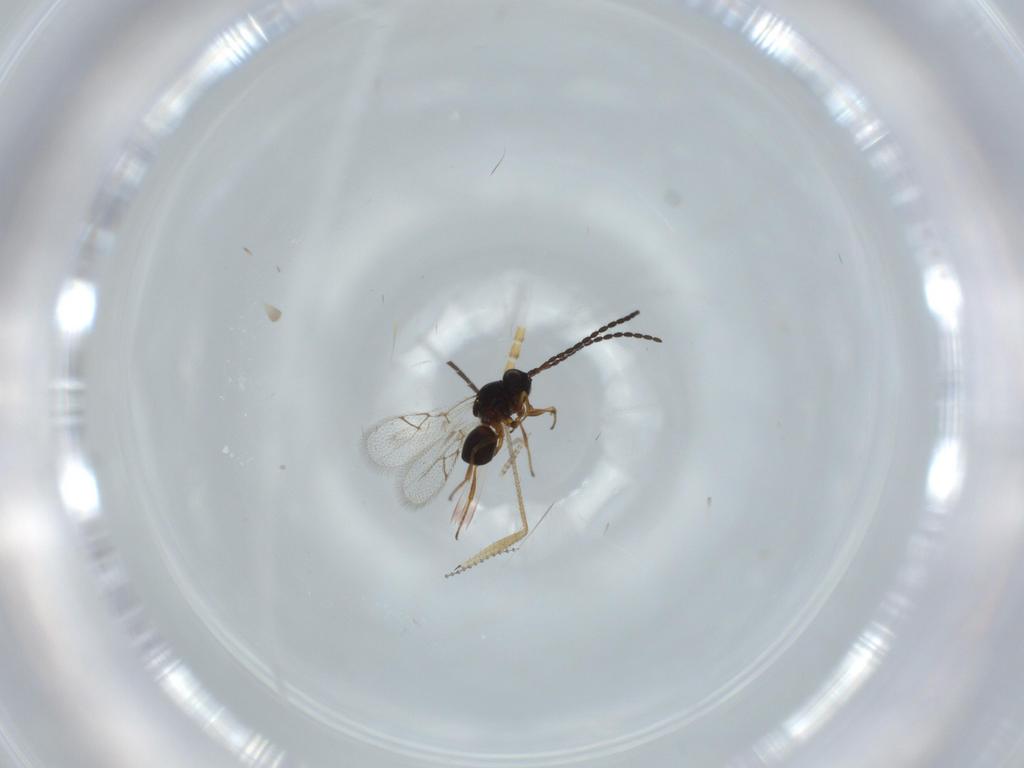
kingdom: Animalia
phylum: Arthropoda
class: Insecta
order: Hymenoptera
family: Figitidae
